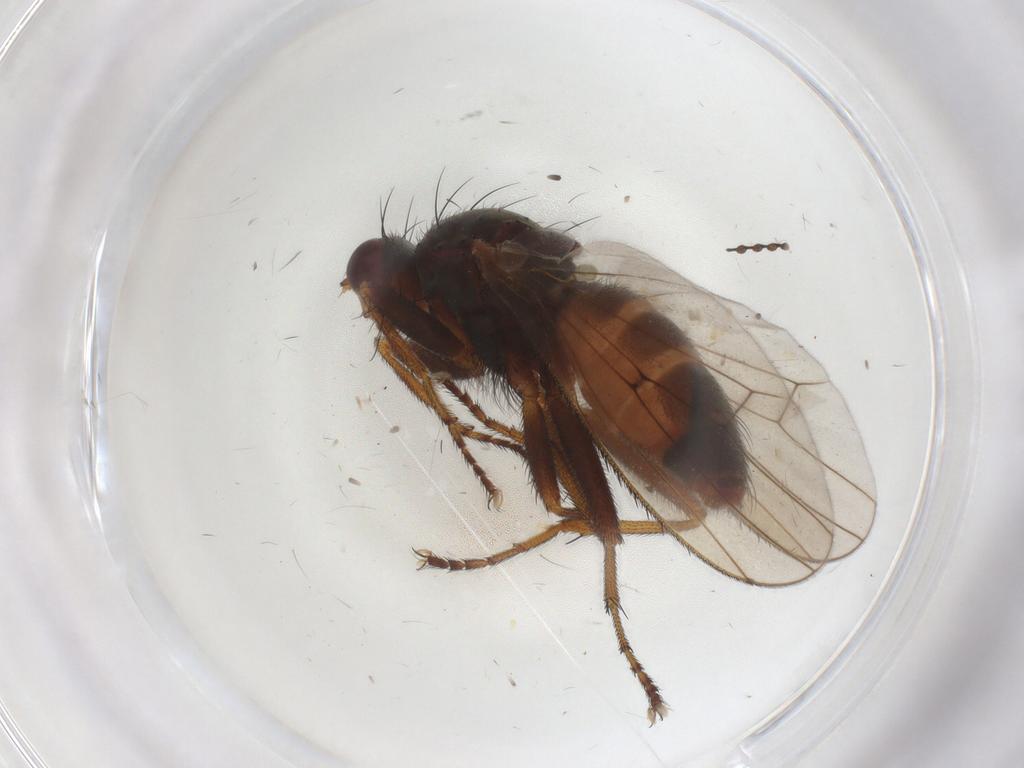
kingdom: Animalia
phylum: Arthropoda
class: Insecta
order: Diptera
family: Heleomyzidae
